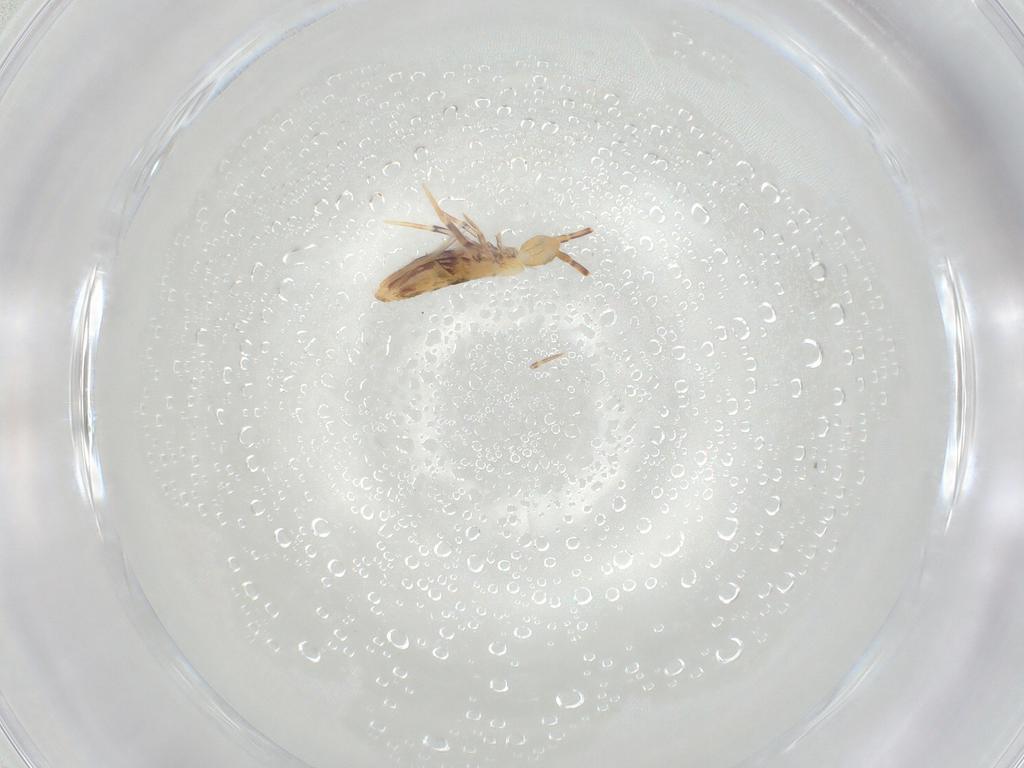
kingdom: Animalia
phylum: Arthropoda
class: Collembola
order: Poduromorpha
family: Hypogastruridae
